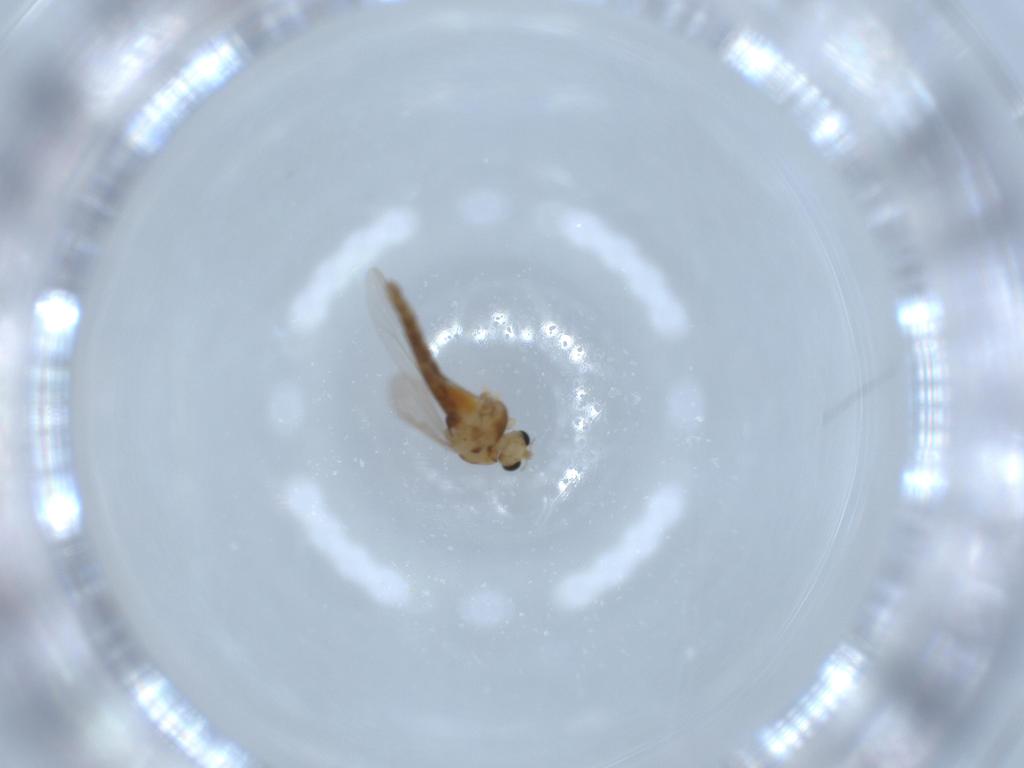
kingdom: Animalia
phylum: Arthropoda
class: Insecta
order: Diptera
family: Chironomidae
